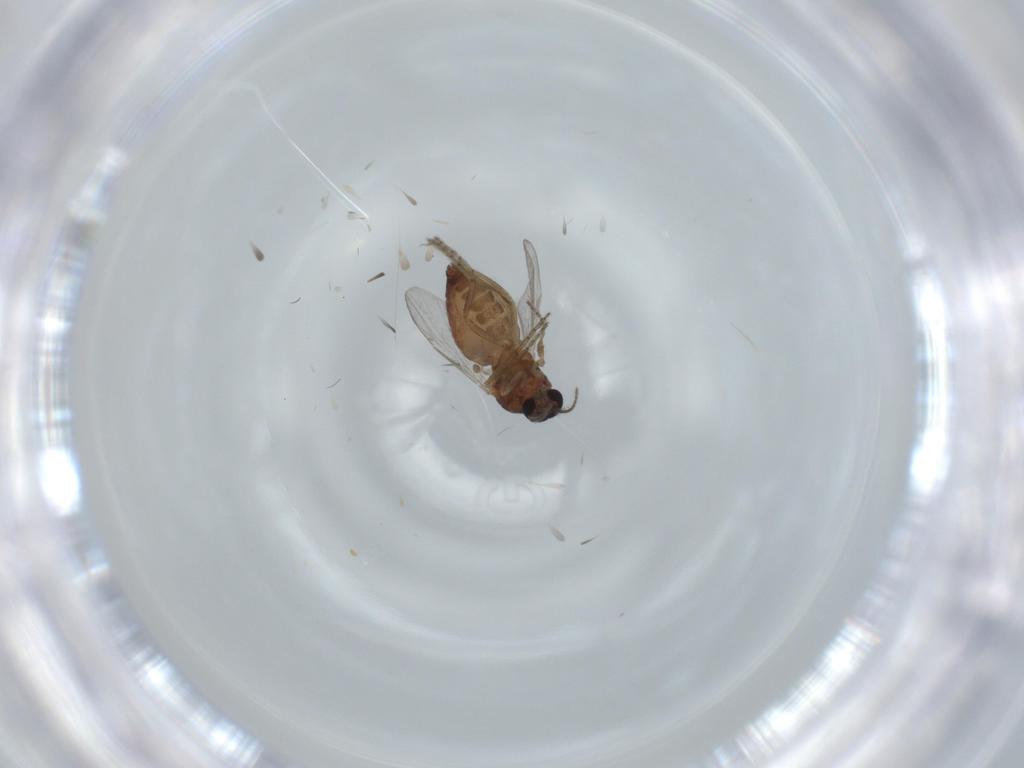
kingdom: Animalia
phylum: Arthropoda
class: Insecta
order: Diptera
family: Ceratopogonidae
